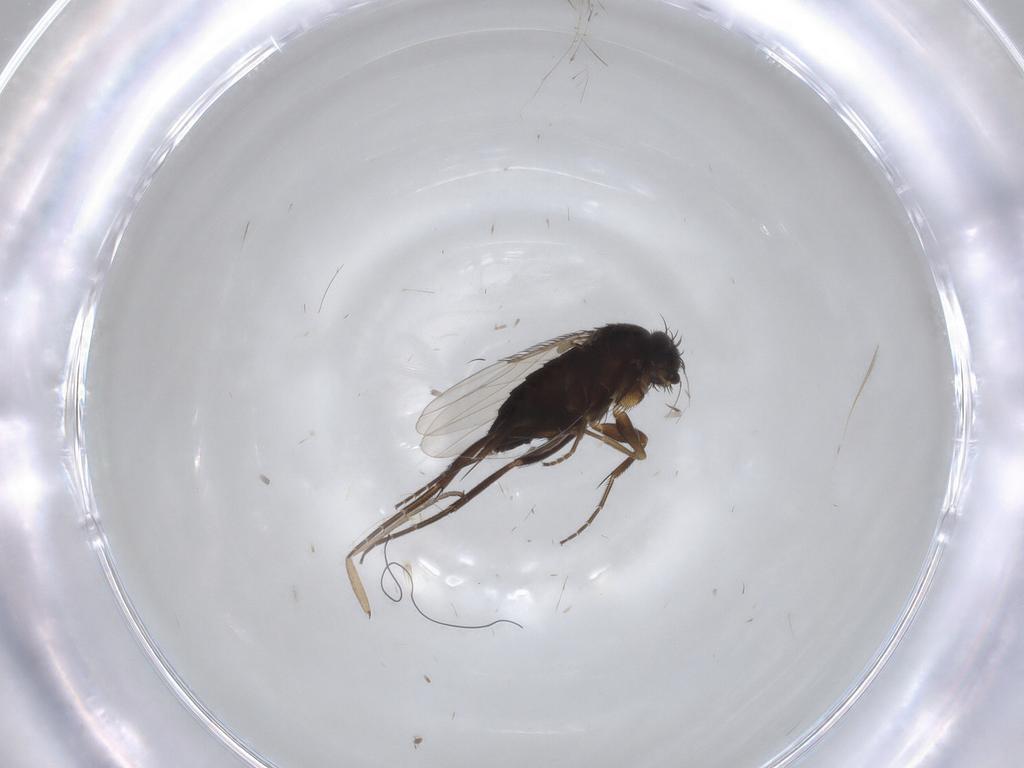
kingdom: Animalia
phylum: Arthropoda
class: Insecta
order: Diptera
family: Phoridae
